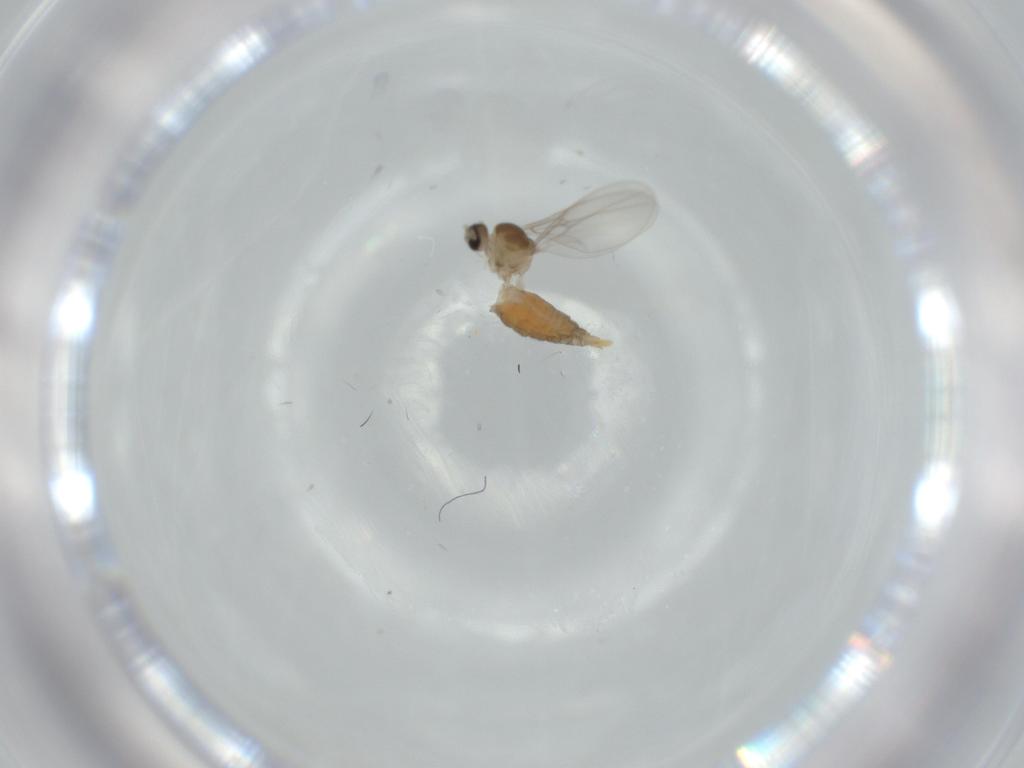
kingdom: Animalia
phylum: Arthropoda
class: Insecta
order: Diptera
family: Cecidomyiidae
